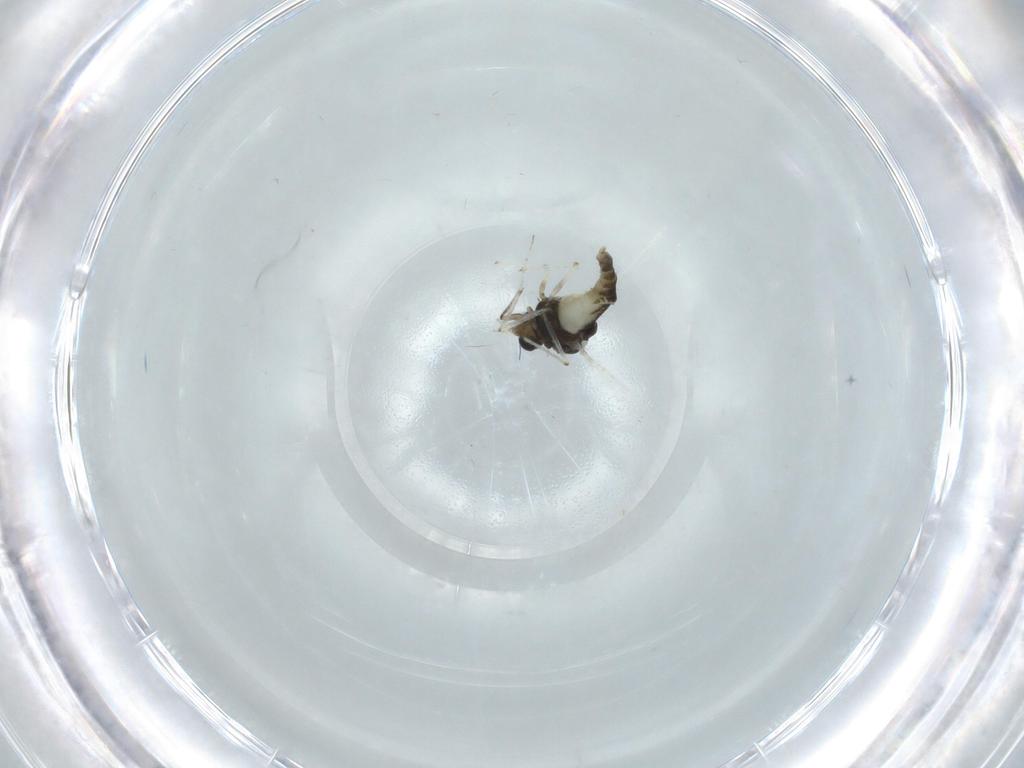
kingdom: Animalia
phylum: Arthropoda
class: Insecta
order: Diptera
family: Chironomidae
